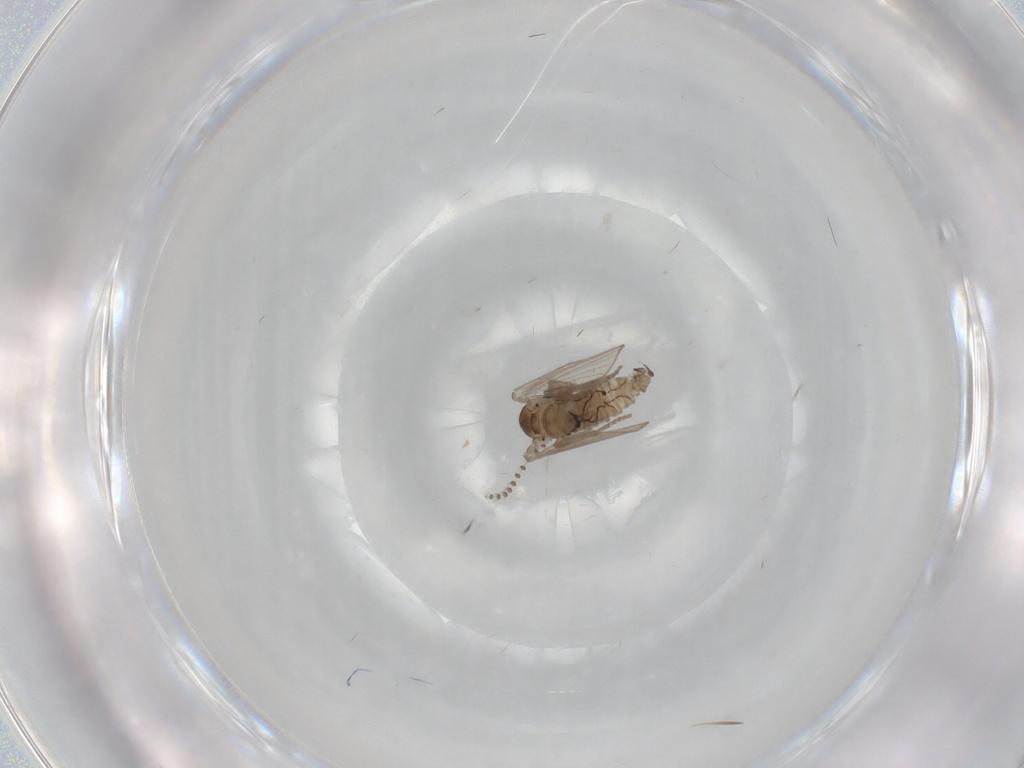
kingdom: Animalia
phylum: Arthropoda
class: Insecta
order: Diptera
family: Psychodidae
